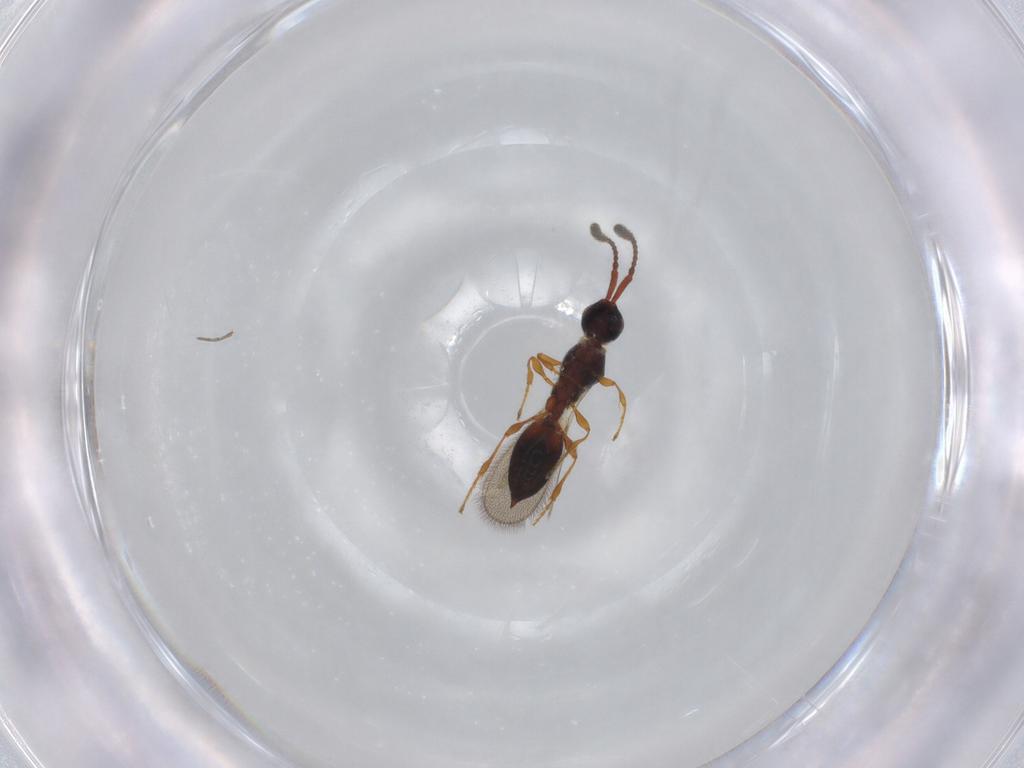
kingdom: Animalia
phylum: Arthropoda
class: Insecta
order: Hymenoptera
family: Diapriidae
